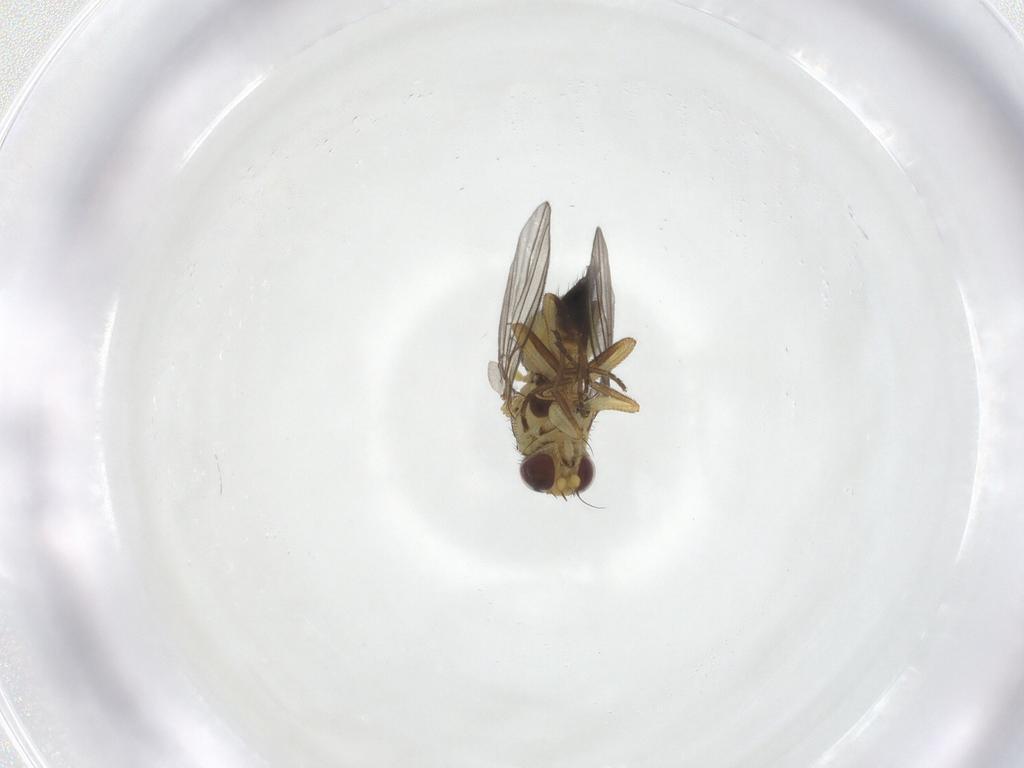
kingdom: Animalia
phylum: Arthropoda
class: Insecta
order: Diptera
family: Agromyzidae
